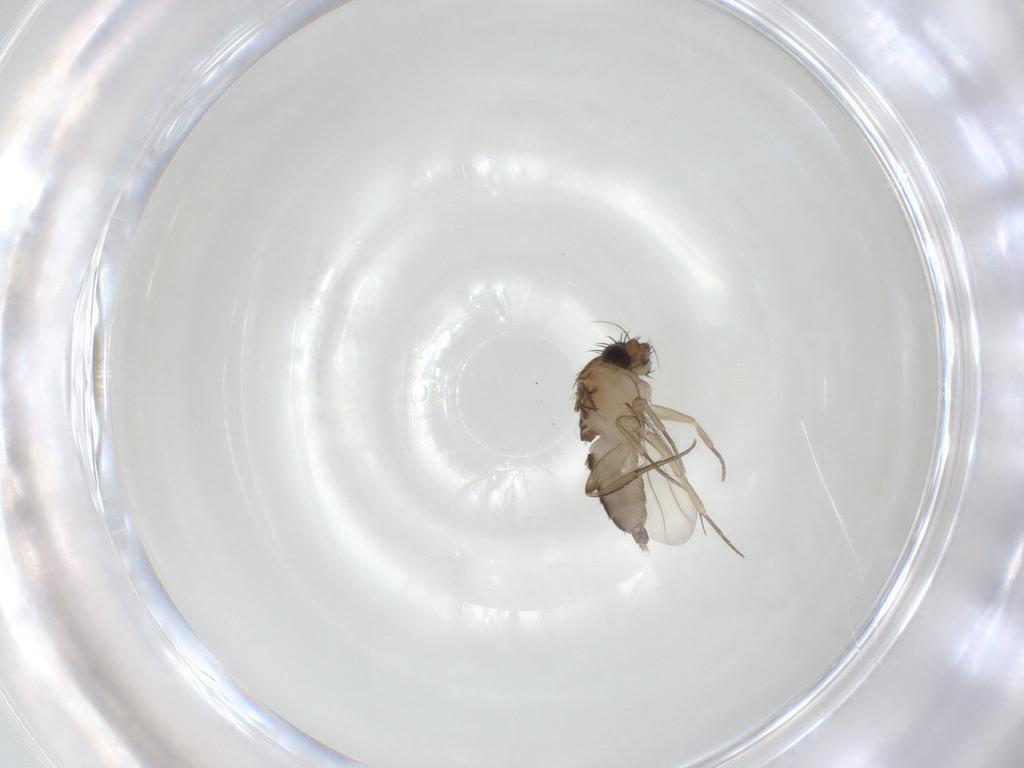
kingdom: Animalia
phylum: Arthropoda
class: Insecta
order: Diptera
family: Phoridae
